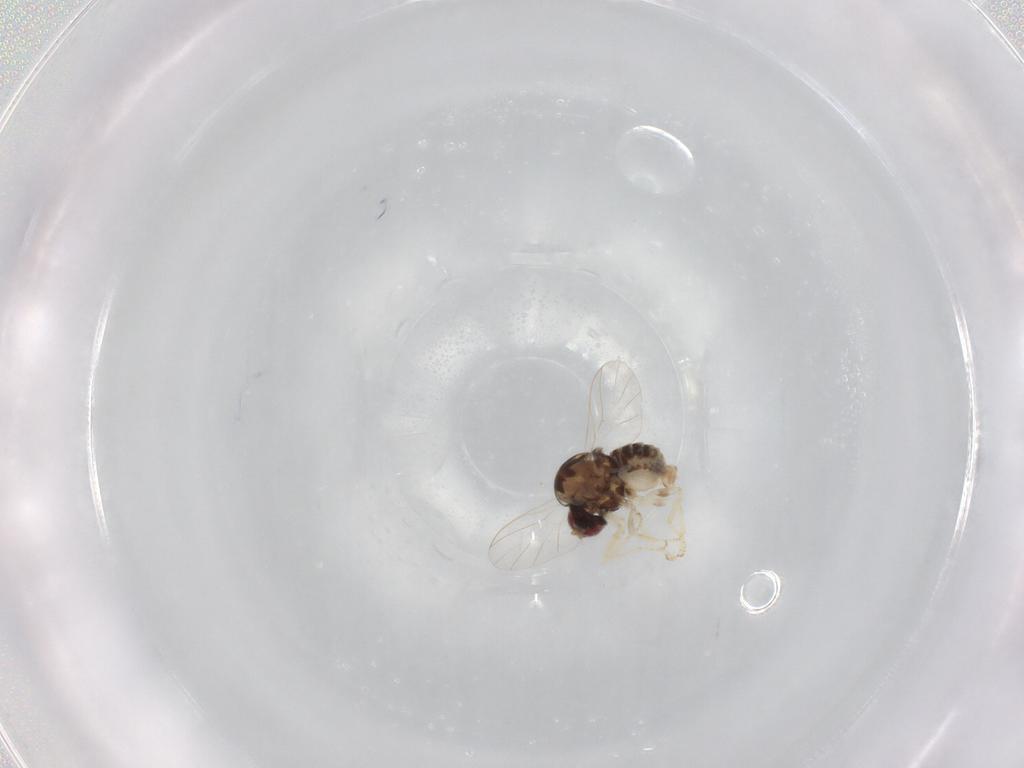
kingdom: Animalia
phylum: Arthropoda
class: Insecta
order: Diptera
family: Bombyliidae
